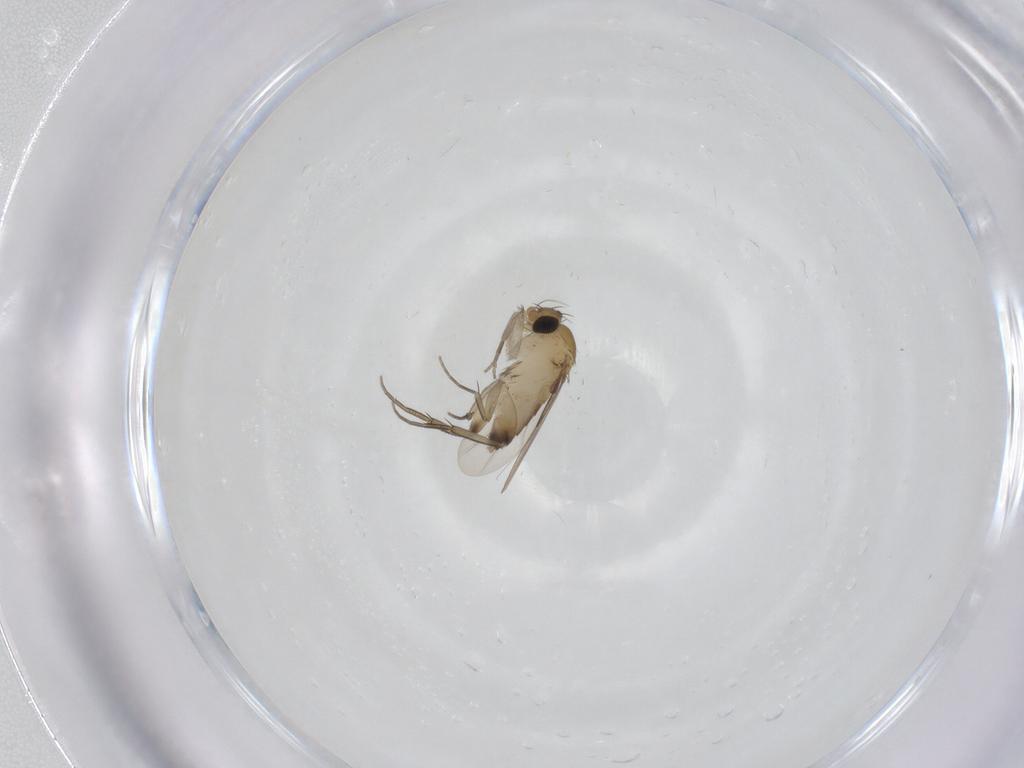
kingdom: Animalia
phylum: Arthropoda
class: Insecta
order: Diptera
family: Phoridae
